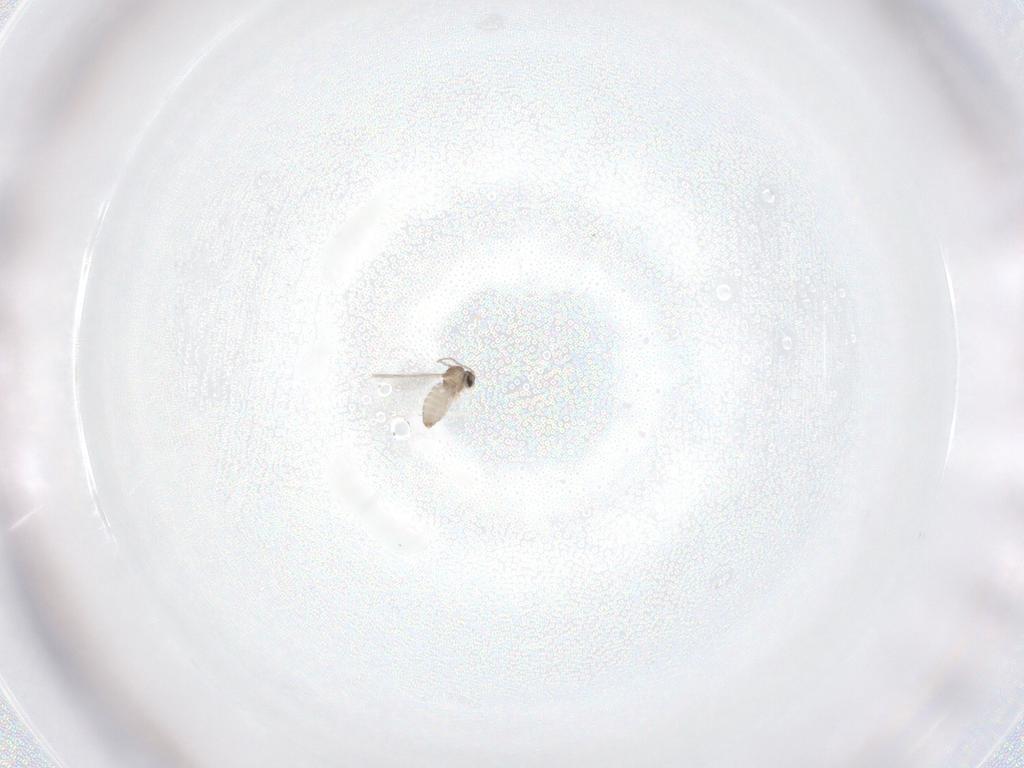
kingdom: Animalia
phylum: Arthropoda
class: Insecta
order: Diptera
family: Cecidomyiidae
